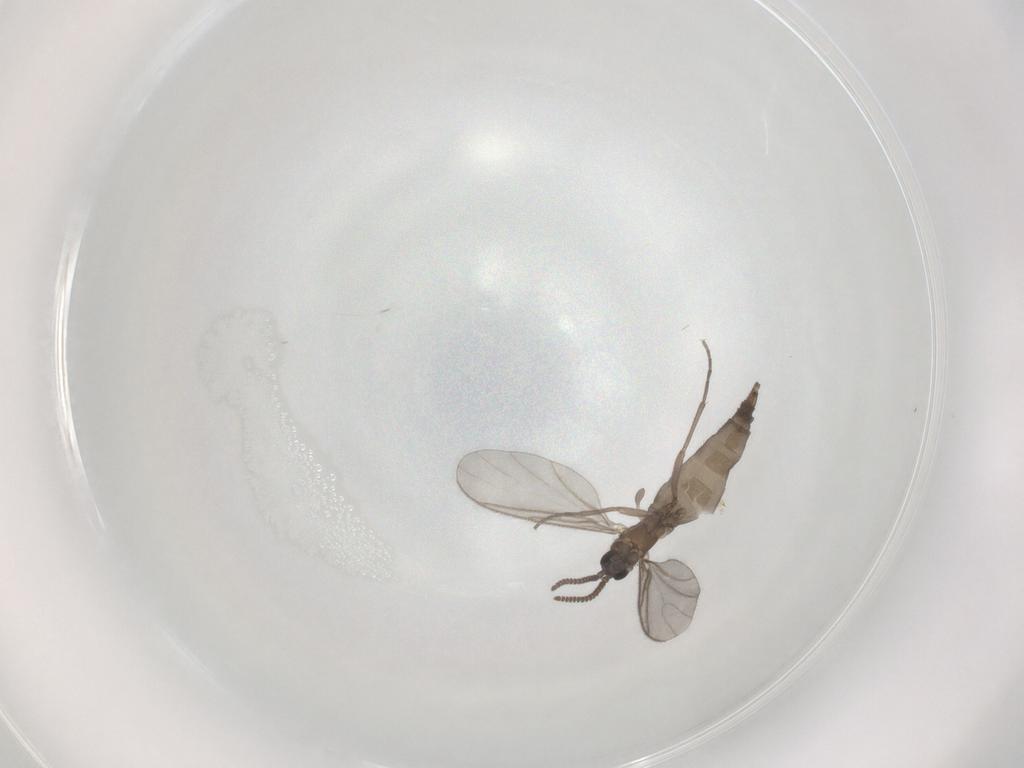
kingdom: Animalia
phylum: Arthropoda
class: Insecta
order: Diptera
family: Sciaridae
